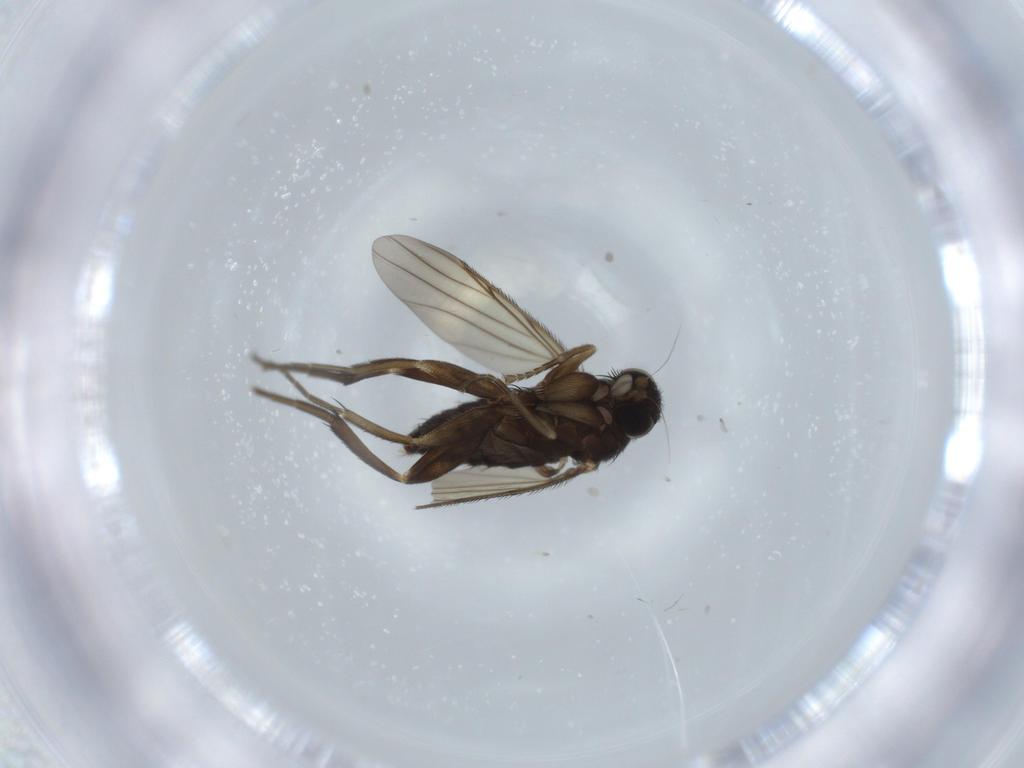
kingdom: Animalia
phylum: Arthropoda
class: Insecta
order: Diptera
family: Phoridae
